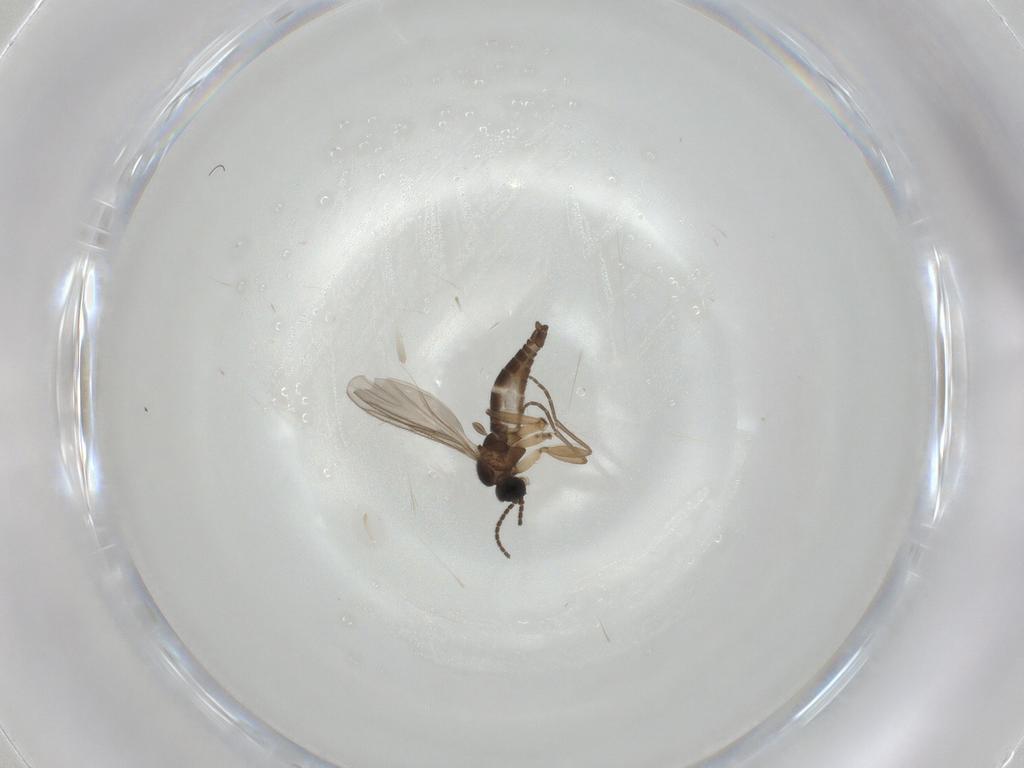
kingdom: Animalia
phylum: Arthropoda
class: Insecta
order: Diptera
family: Sciaridae
